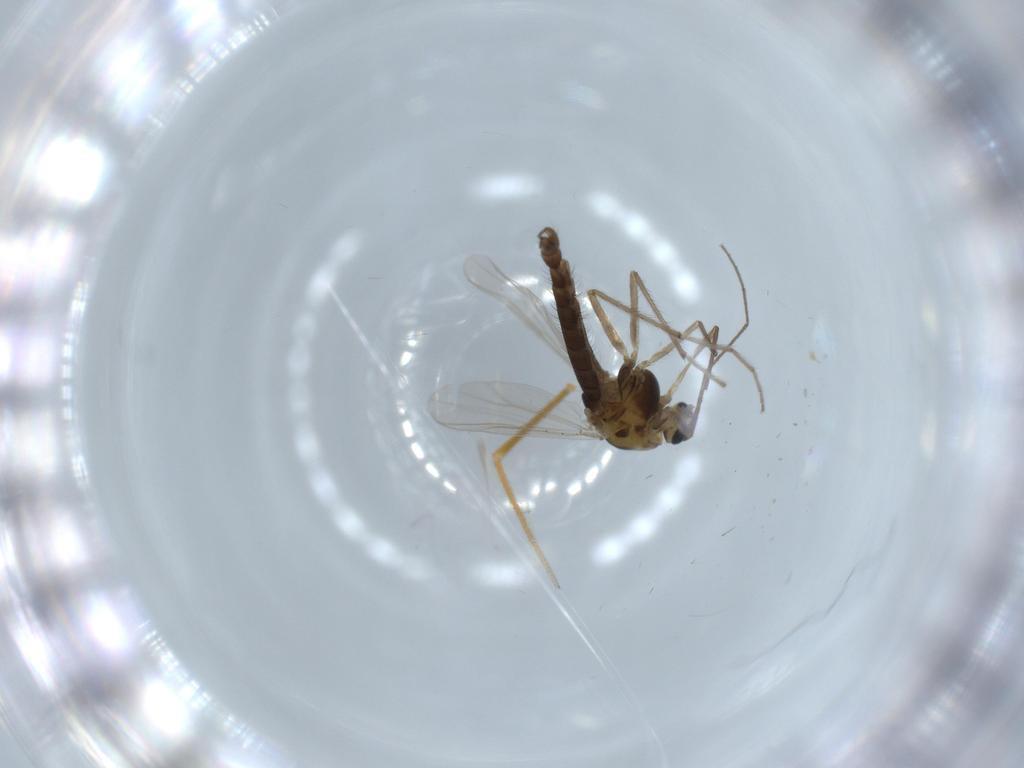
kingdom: Animalia
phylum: Arthropoda
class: Insecta
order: Diptera
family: Chironomidae
